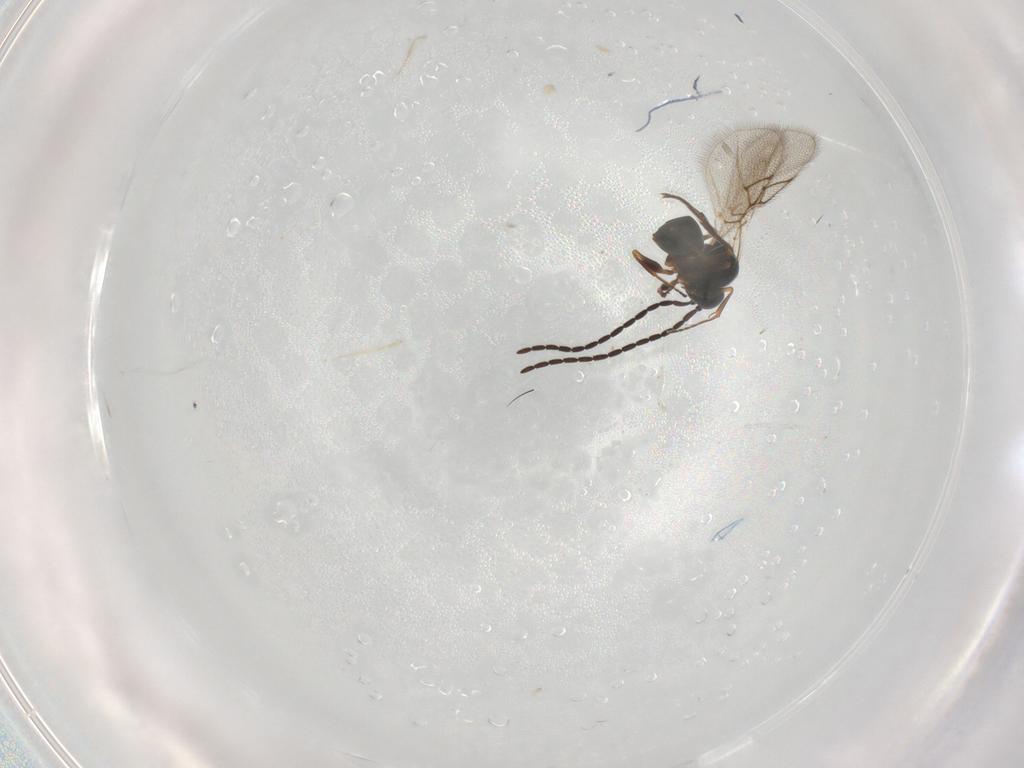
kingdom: Animalia
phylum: Arthropoda
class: Insecta
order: Hymenoptera
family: Figitidae
